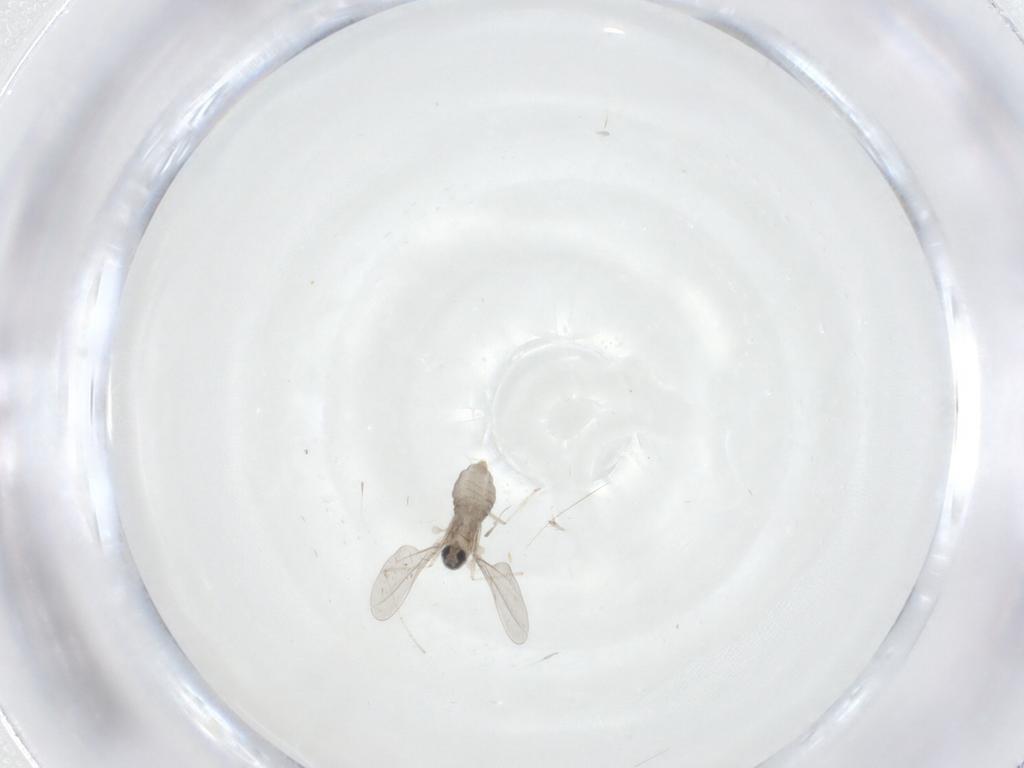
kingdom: Animalia
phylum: Arthropoda
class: Insecta
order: Diptera
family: Cecidomyiidae
